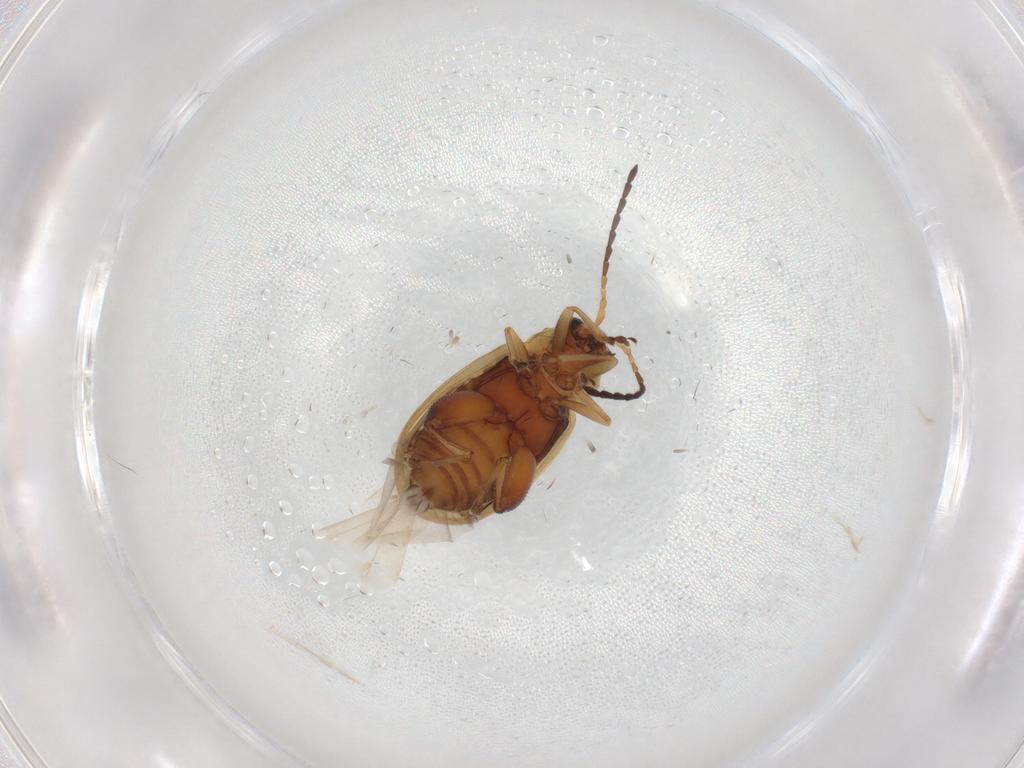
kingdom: Animalia
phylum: Arthropoda
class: Insecta
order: Coleoptera
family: Chrysomelidae
